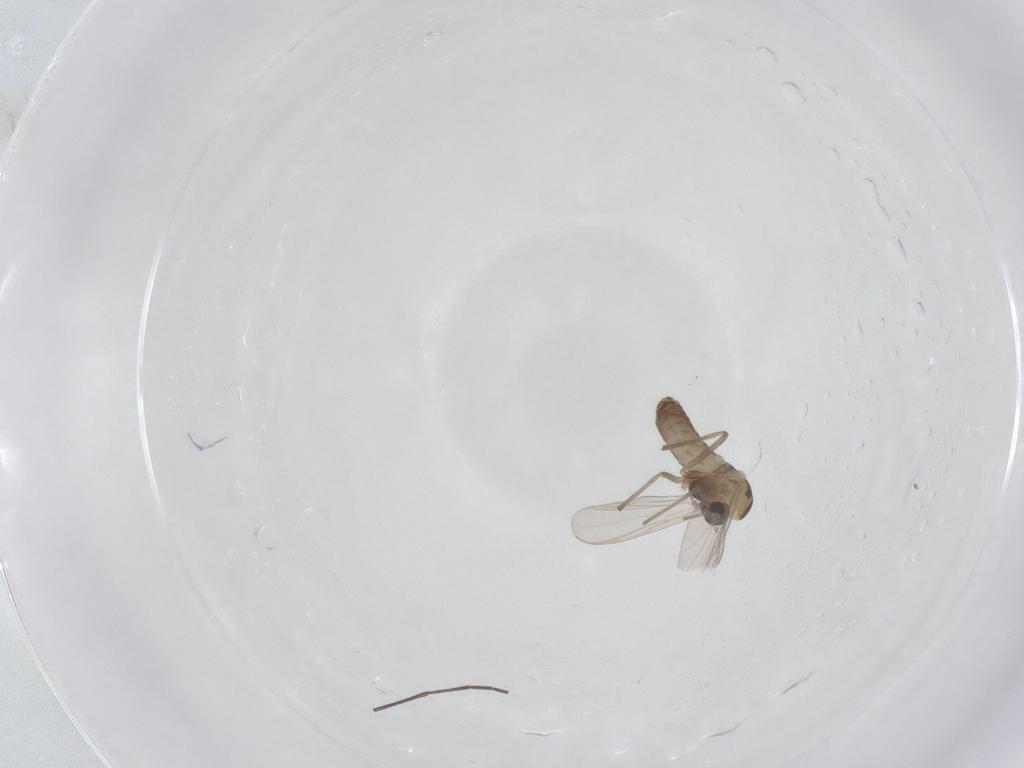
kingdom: Animalia
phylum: Arthropoda
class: Insecta
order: Diptera
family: Chironomidae
